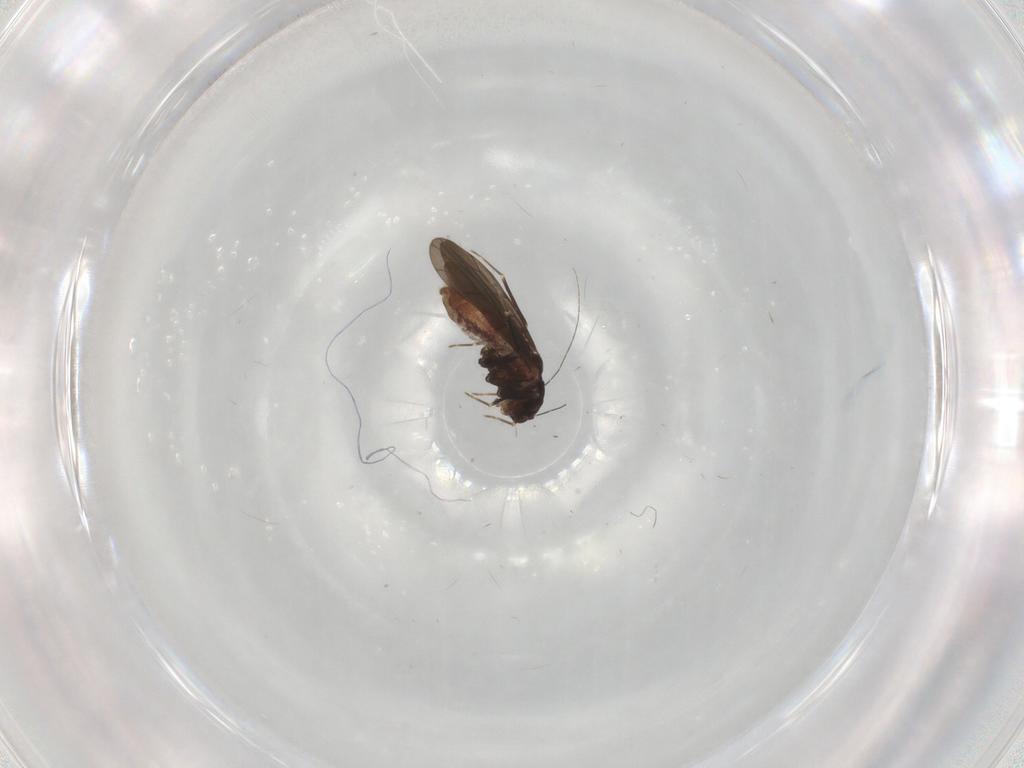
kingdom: Animalia
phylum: Arthropoda
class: Insecta
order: Psocodea
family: Lepidopsocidae
